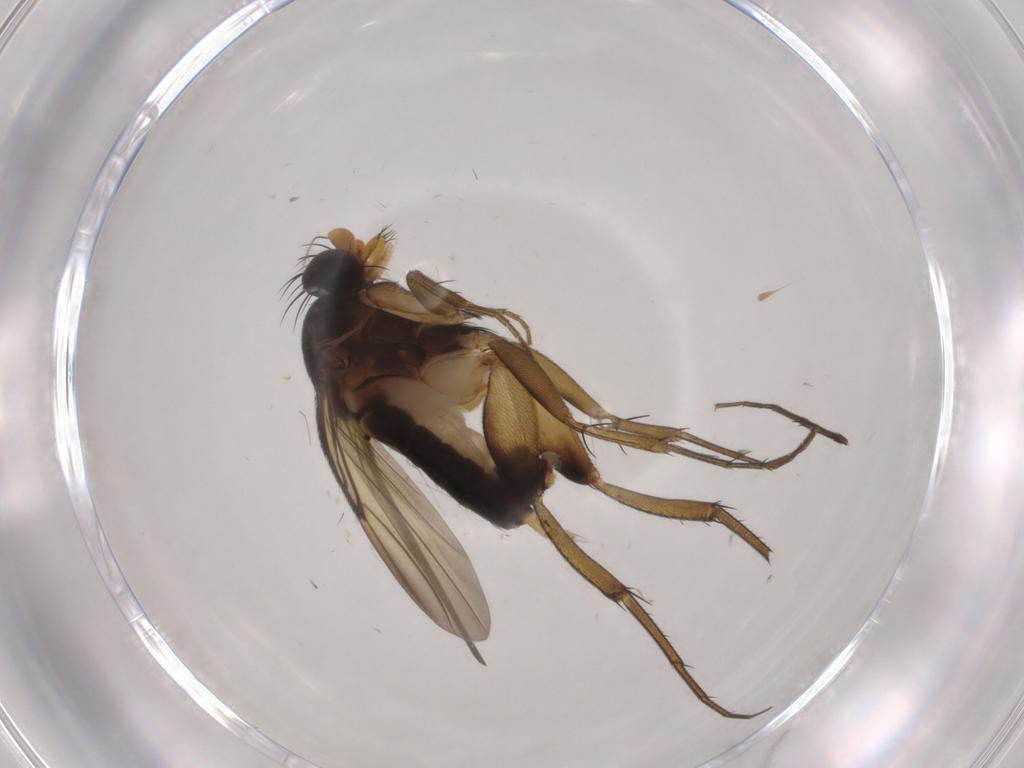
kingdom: Animalia
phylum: Arthropoda
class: Insecta
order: Diptera
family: Phoridae
